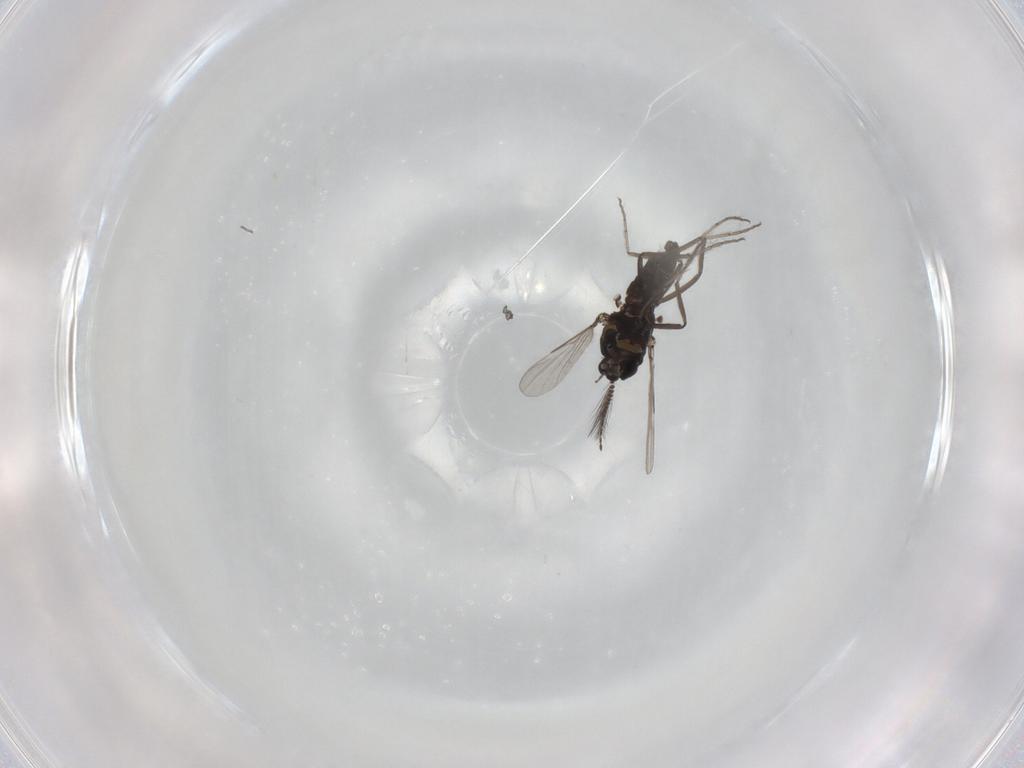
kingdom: Animalia
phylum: Arthropoda
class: Insecta
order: Diptera
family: Ceratopogonidae
